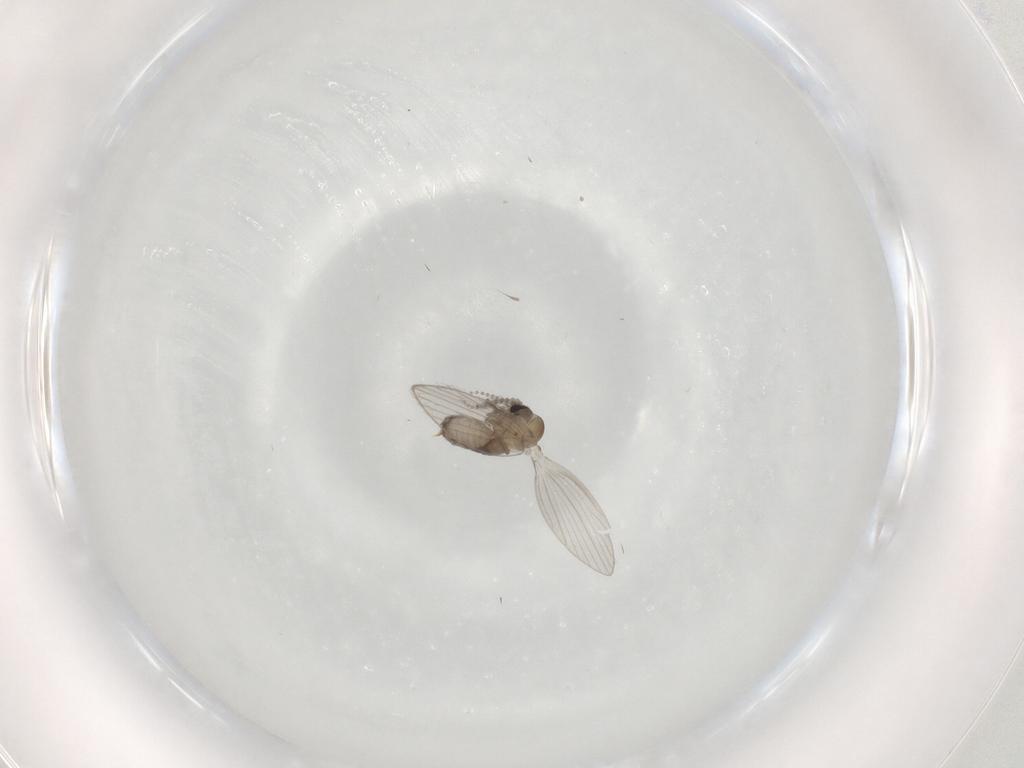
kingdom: Animalia
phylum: Arthropoda
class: Insecta
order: Diptera
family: Psychodidae
